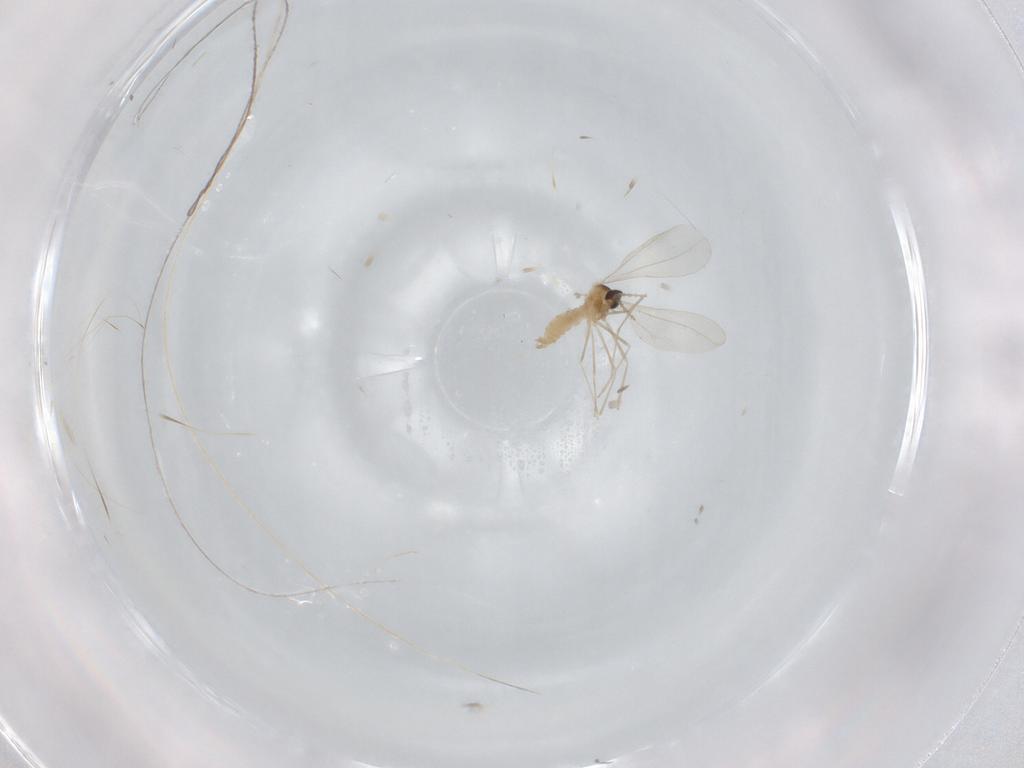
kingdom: Animalia
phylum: Arthropoda
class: Insecta
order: Diptera
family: Cecidomyiidae
